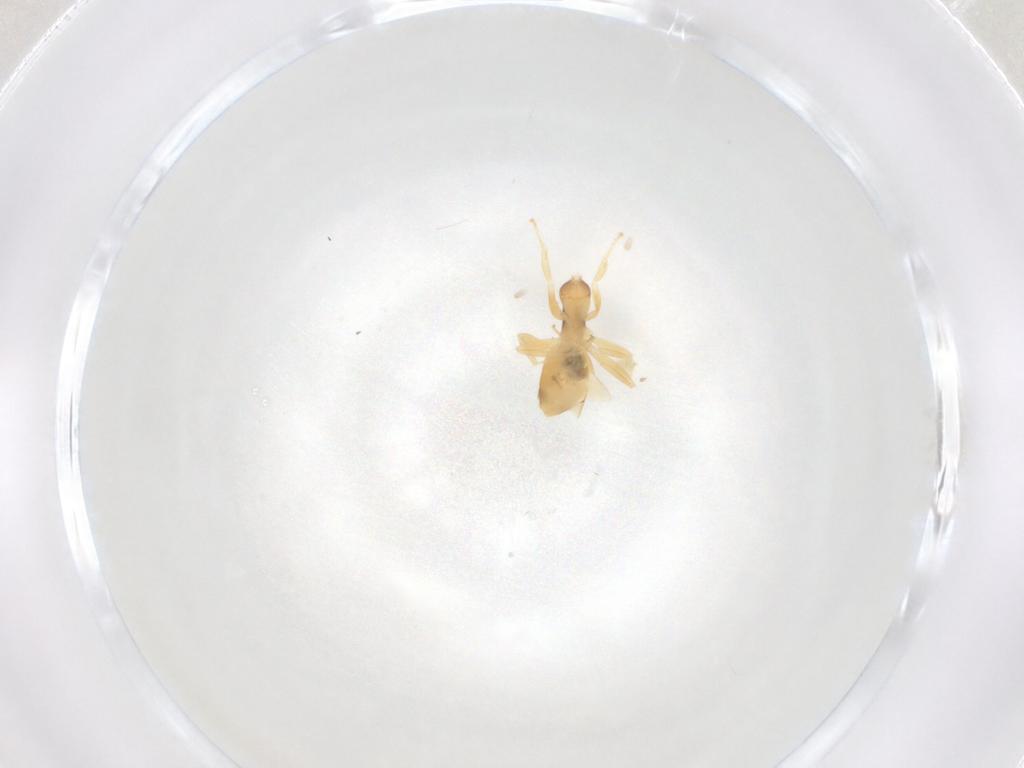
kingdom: Animalia
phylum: Arthropoda
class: Insecta
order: Hymenoptera
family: Formicidae
